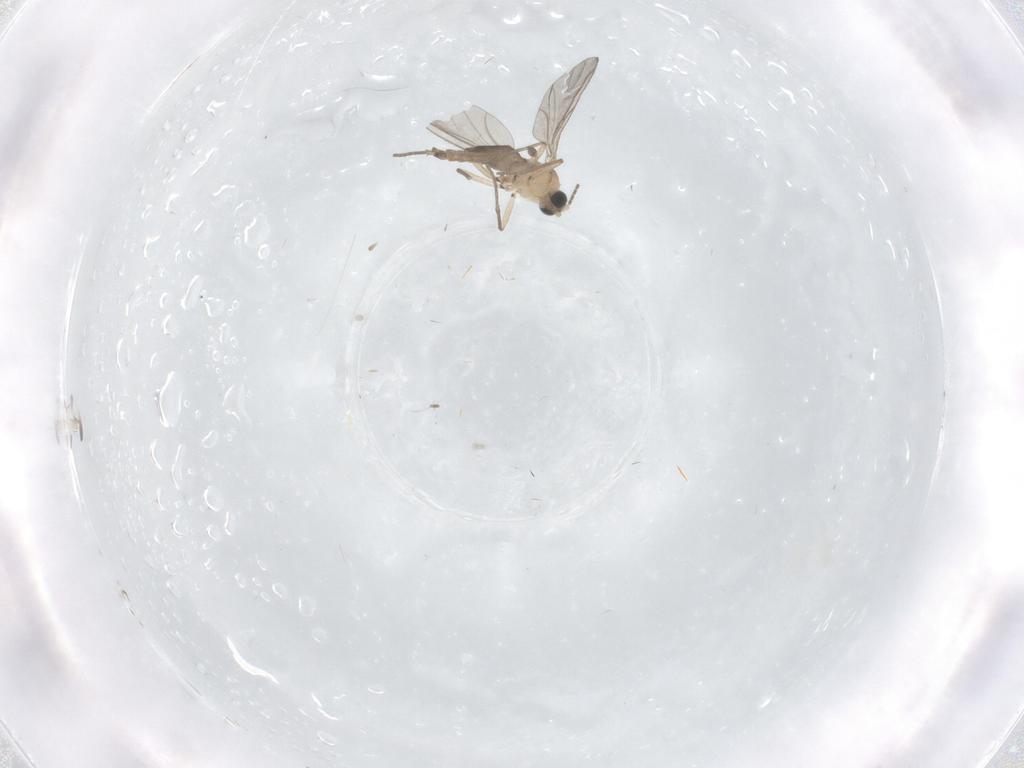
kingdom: Animalia
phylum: Arthropoda
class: Insecta
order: Diptera
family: Sciaridae
